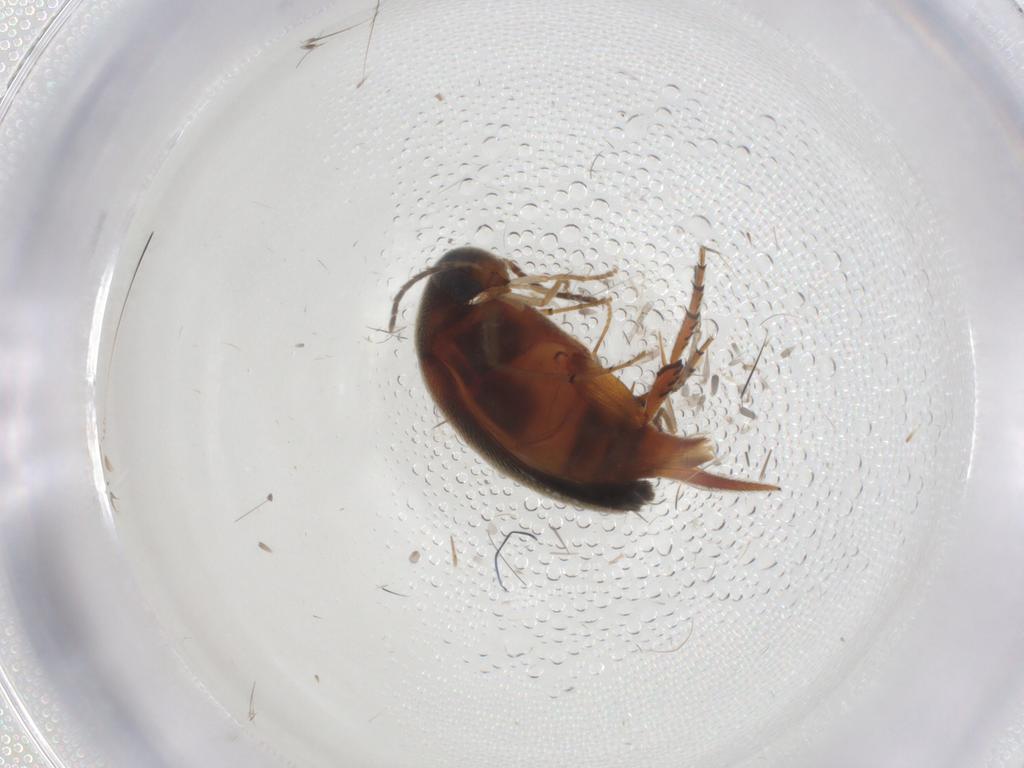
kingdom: Animalia
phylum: Arthropoda
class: Insecta
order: Coleoptera
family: Mordellidae
